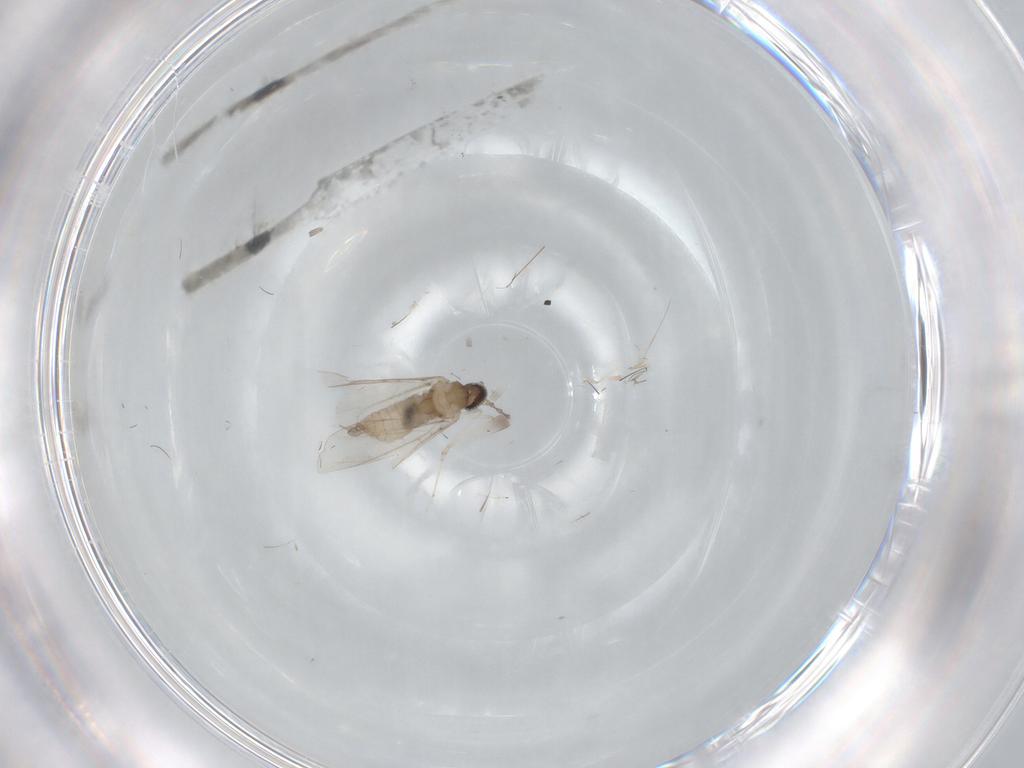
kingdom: Animalia
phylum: Arthropoda
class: Insecta
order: Diptera
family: Cecidomyiidae
